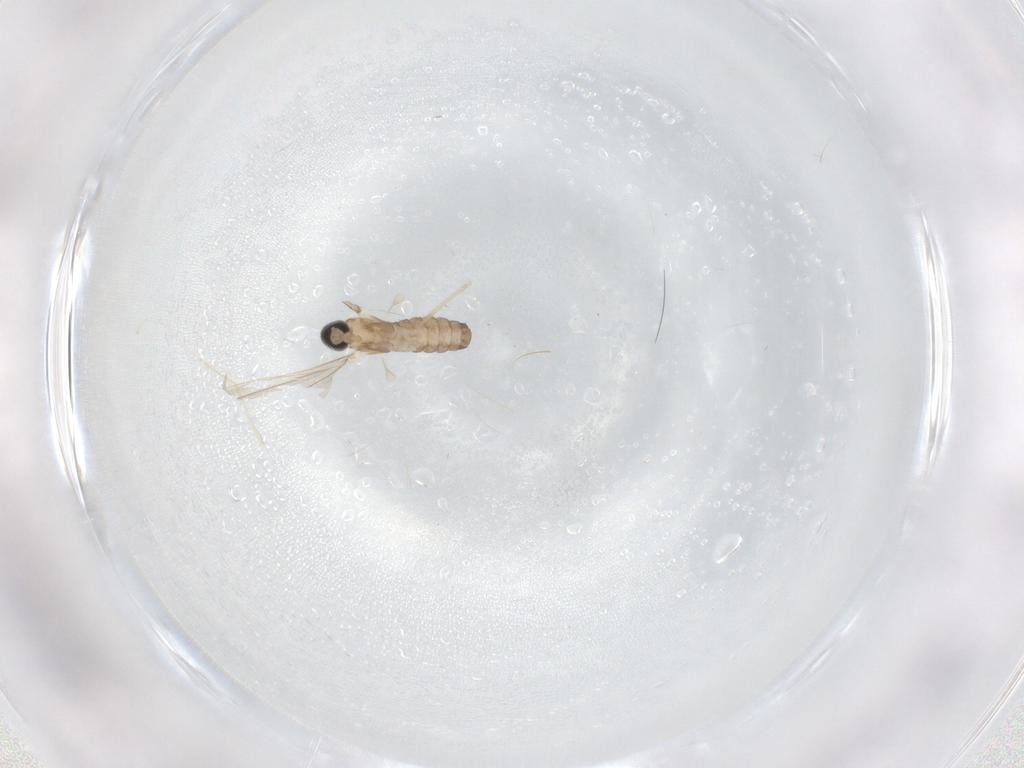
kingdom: Animalia
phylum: Arthropoda
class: Insecta
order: Diptera
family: Cecidomyiidae
